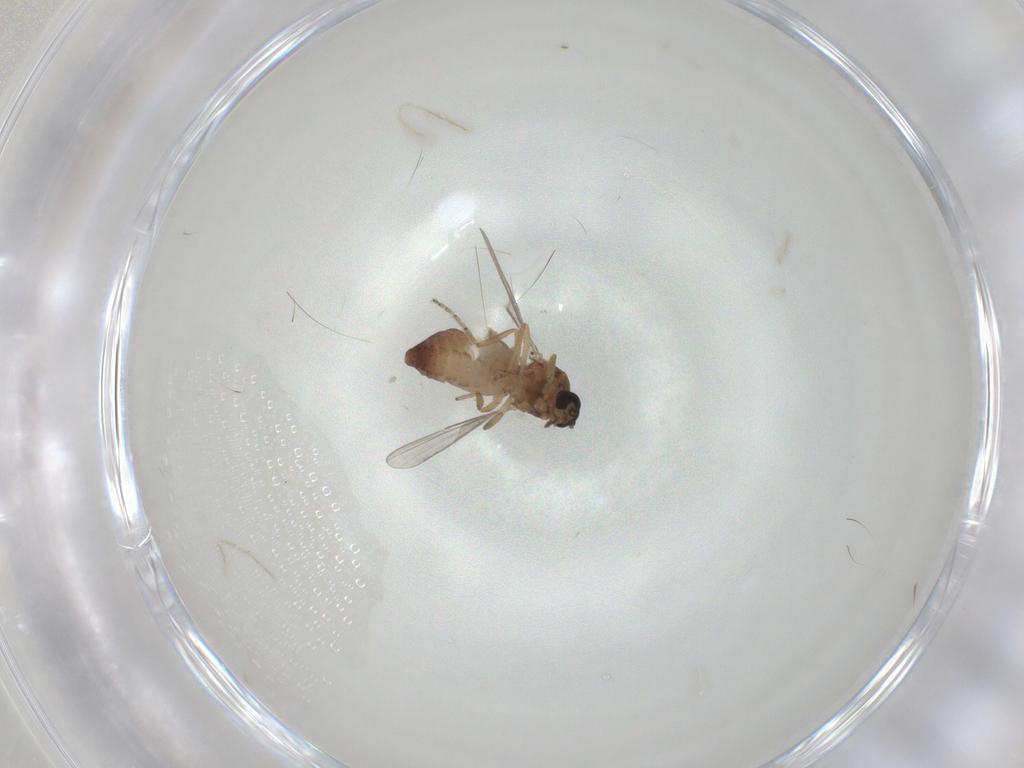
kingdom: Animalia
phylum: Arthropoda
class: Insecta
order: Diptera
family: Ceratopogonidae
